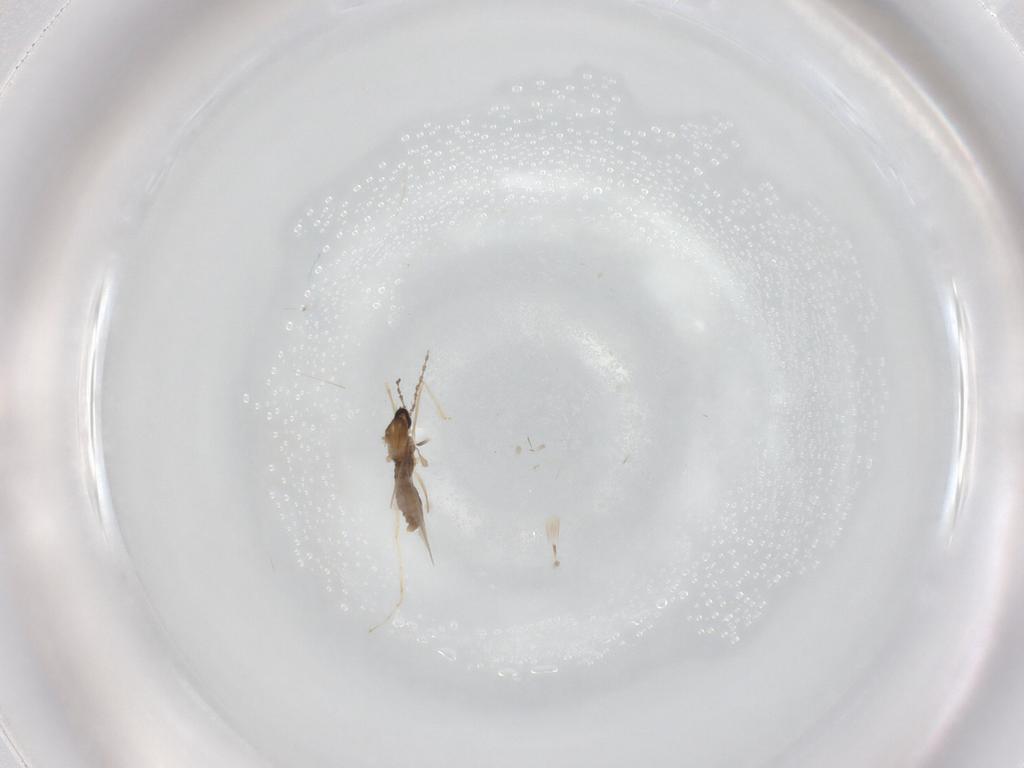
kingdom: Animalia
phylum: Arthropoda
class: Insecta
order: Diptera
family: Cecidomyiidae
